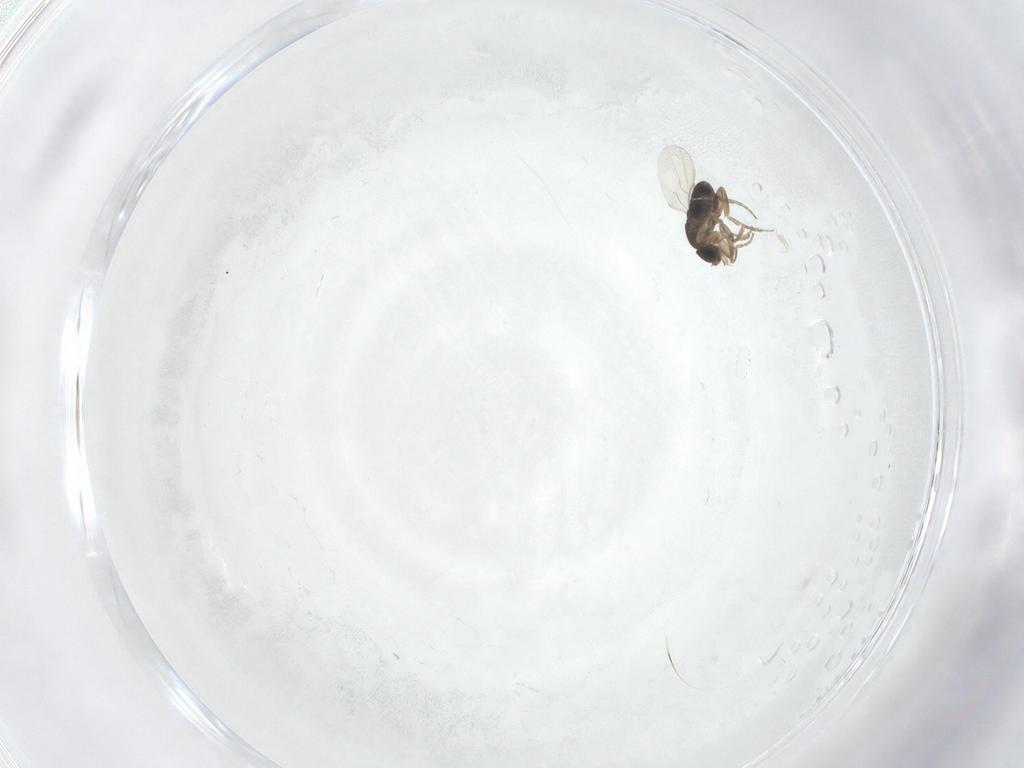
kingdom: Animalia
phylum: Arthropoda
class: Insecta
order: Diptera
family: Phoridae
